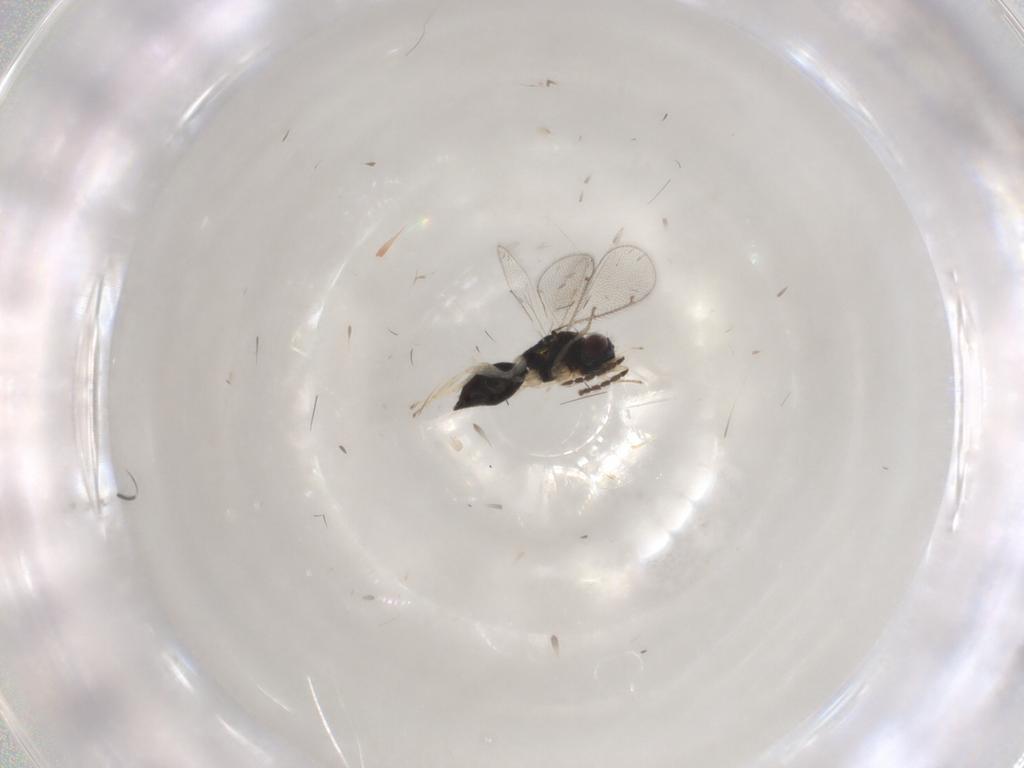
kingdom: Animalia
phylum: Arthropoda
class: Insecta
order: Hymenoptera
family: Eulophidae
